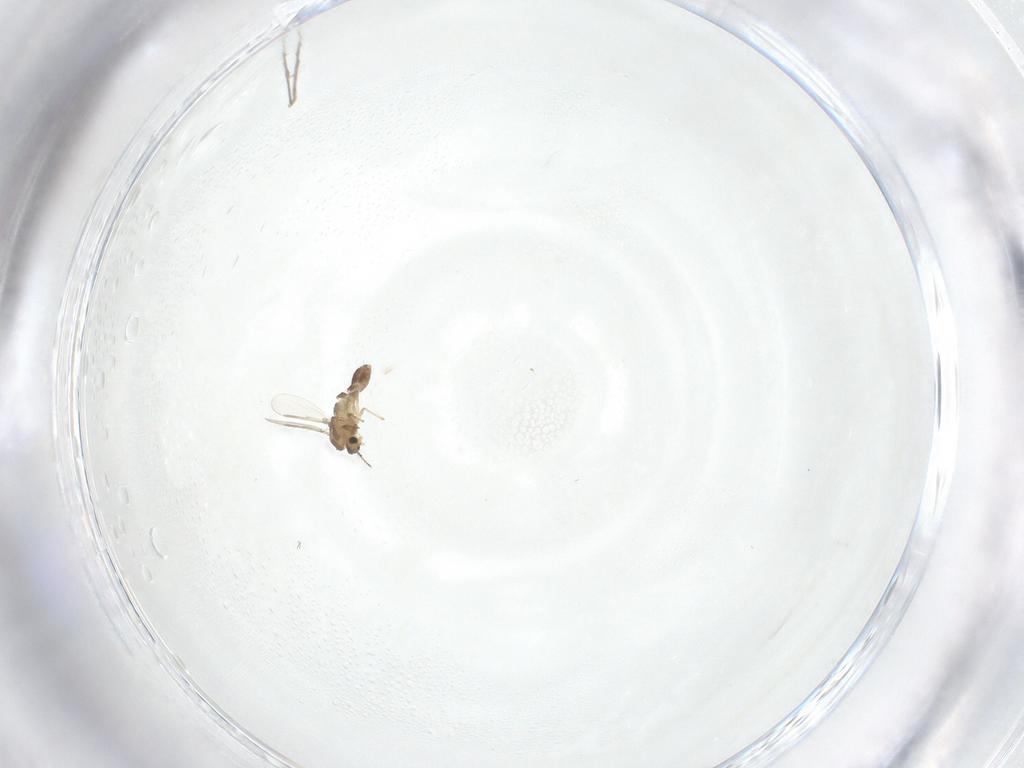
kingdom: Animalia
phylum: Arthropoda
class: Insecta
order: Diptera
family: Chironomidae
